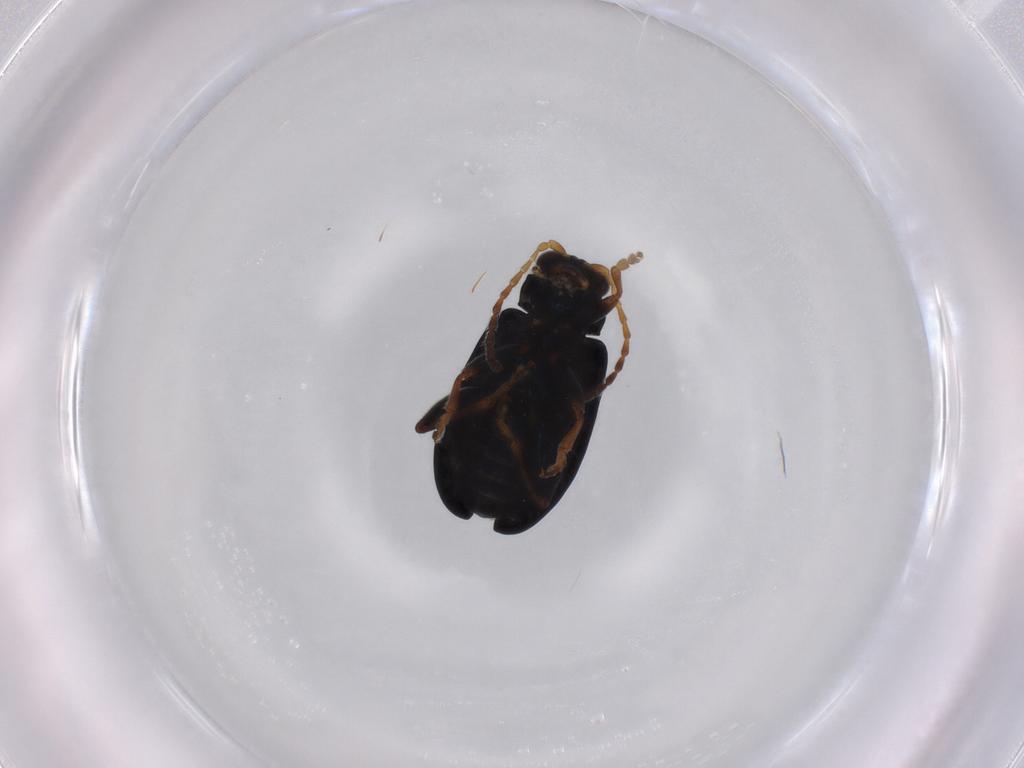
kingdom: Animalia
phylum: Arthropoda
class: Insecta
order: Coleoptera
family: Chrysomelidae
